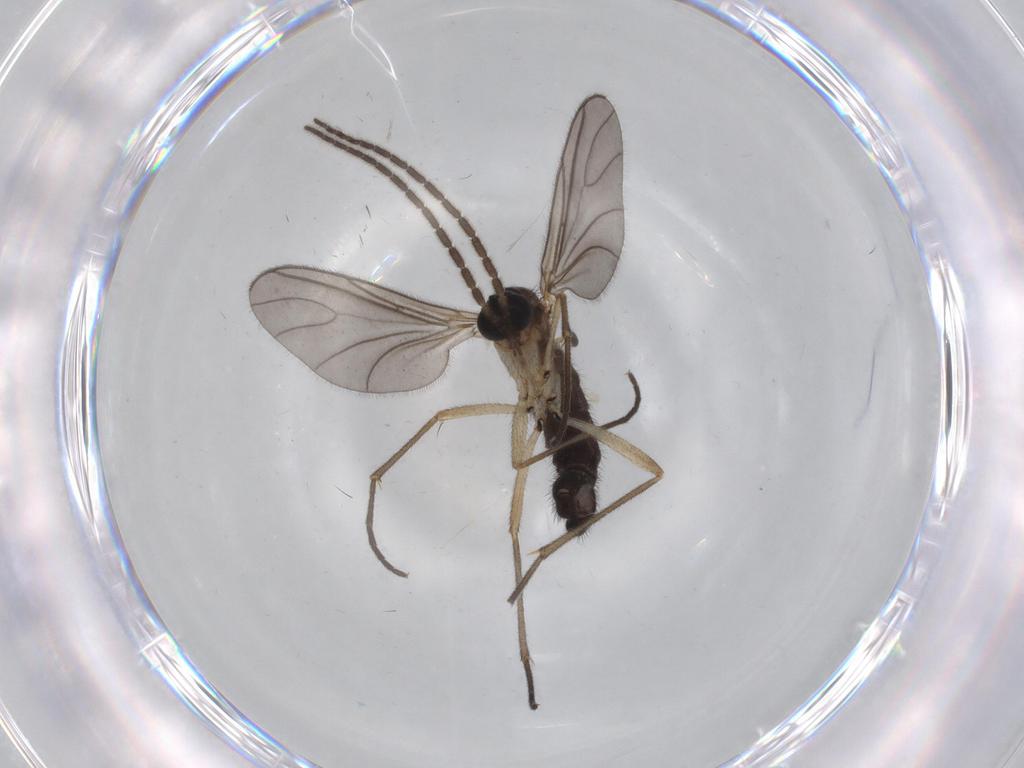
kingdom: Animalia
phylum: Arthropoda
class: Insecta
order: Diptera
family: Sciaridae
